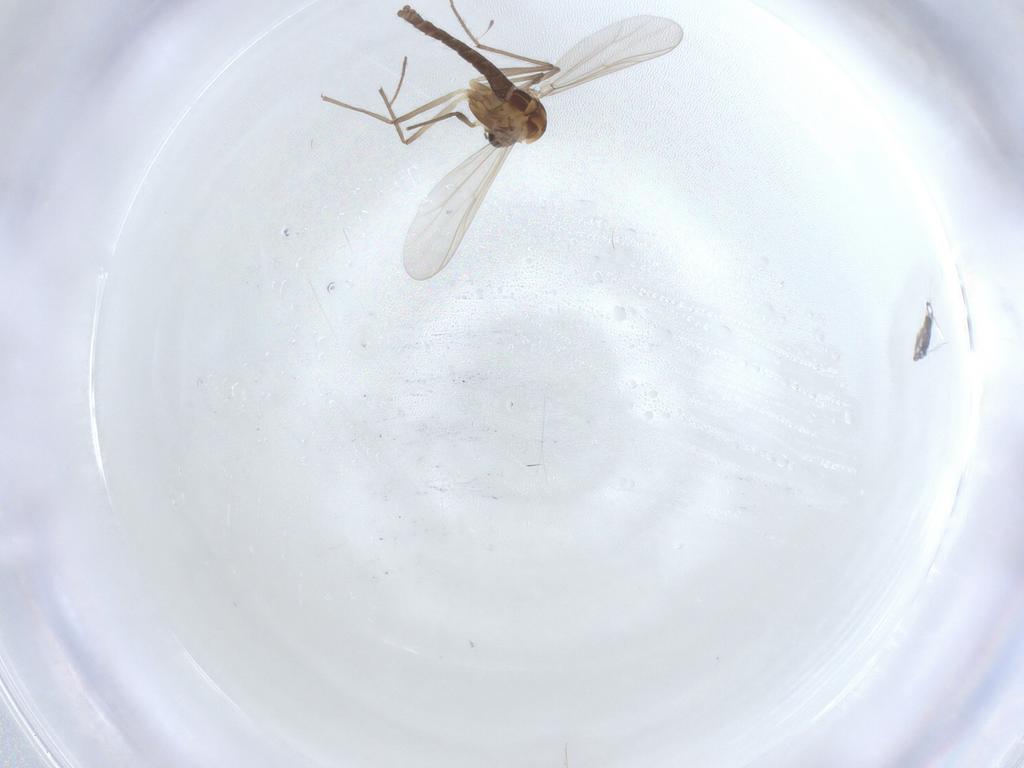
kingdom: Animalia
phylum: Arthropoda
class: Insecta
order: Diptera
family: Chironomidae
